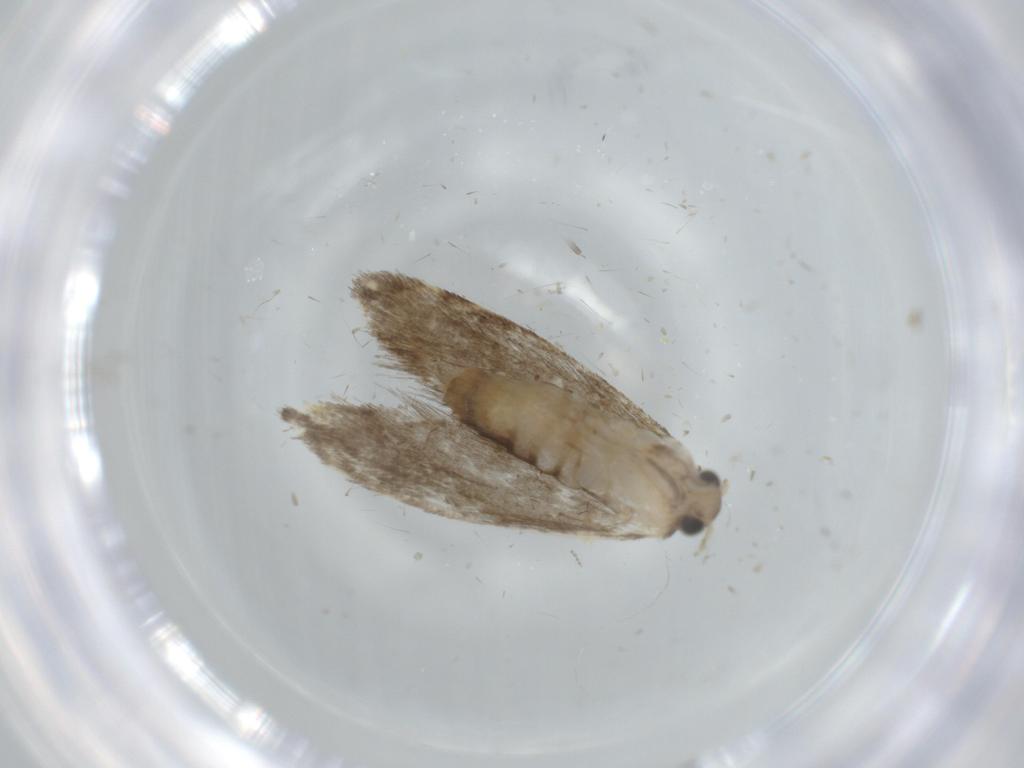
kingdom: Animalia
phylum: Arthropoda
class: Insecta
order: Lepidoptera
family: Tineidae
